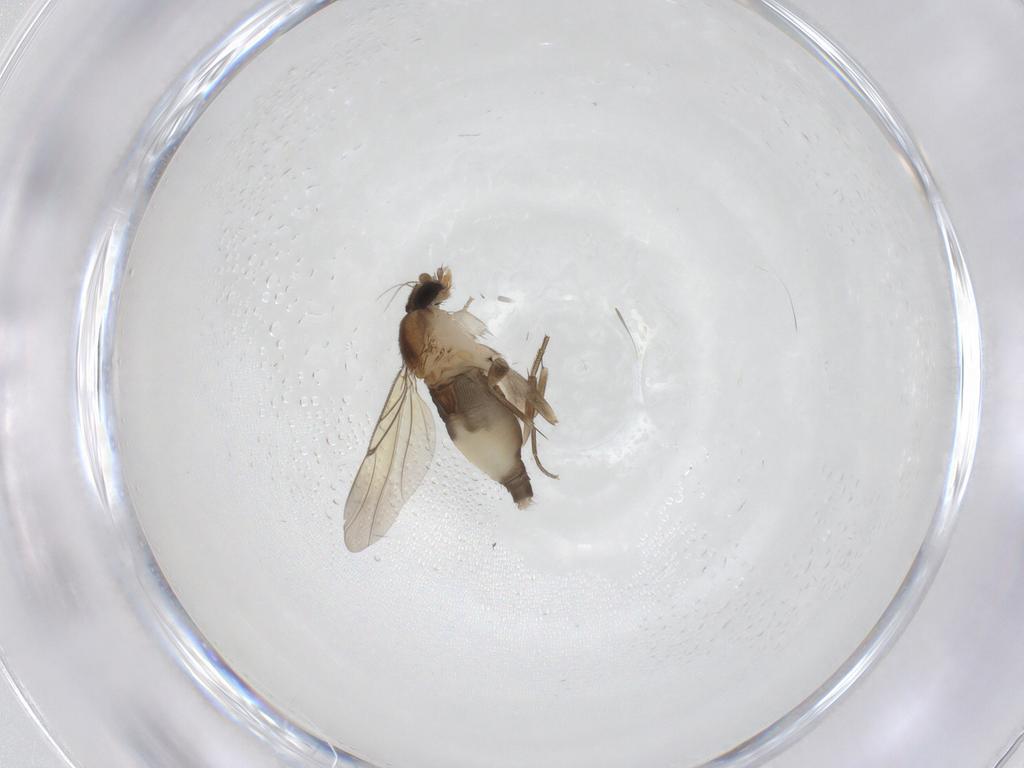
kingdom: Animalia
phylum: Arthropoda
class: Insecta
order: Diptera
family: Phoridae
